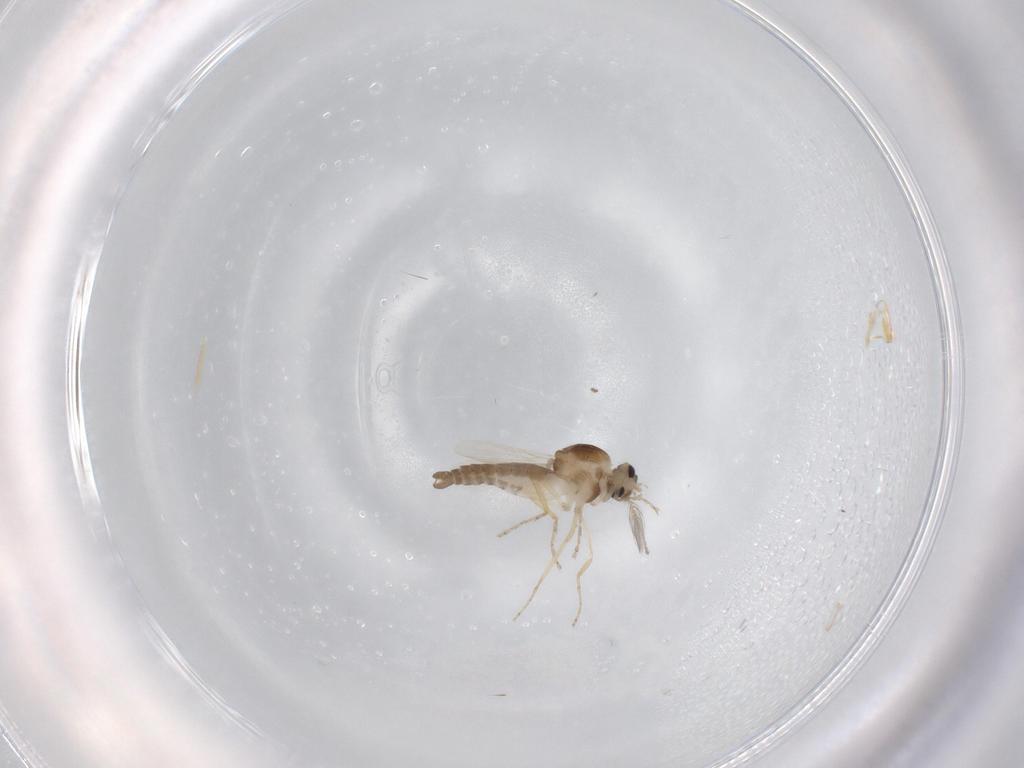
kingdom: Animalia
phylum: Arthropoda
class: Insecta
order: Diptera
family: Ceratopogonidae
